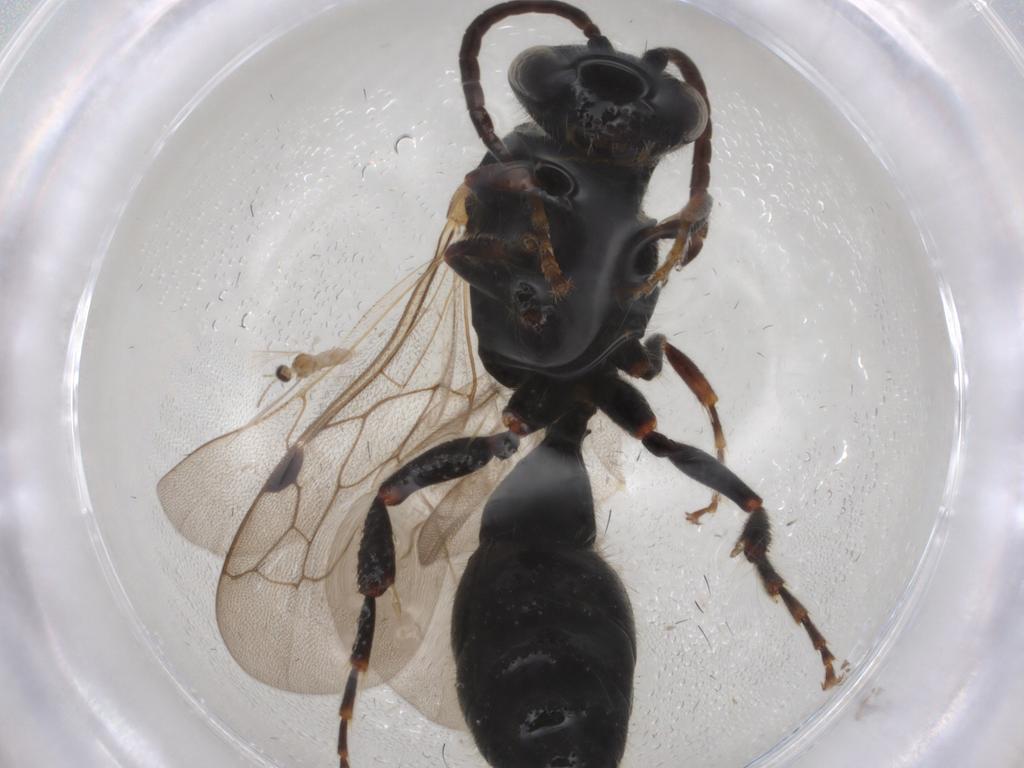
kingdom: Animalia
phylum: Arthropoda
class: Insecta
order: Hymenoptera
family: Tiphiidae
